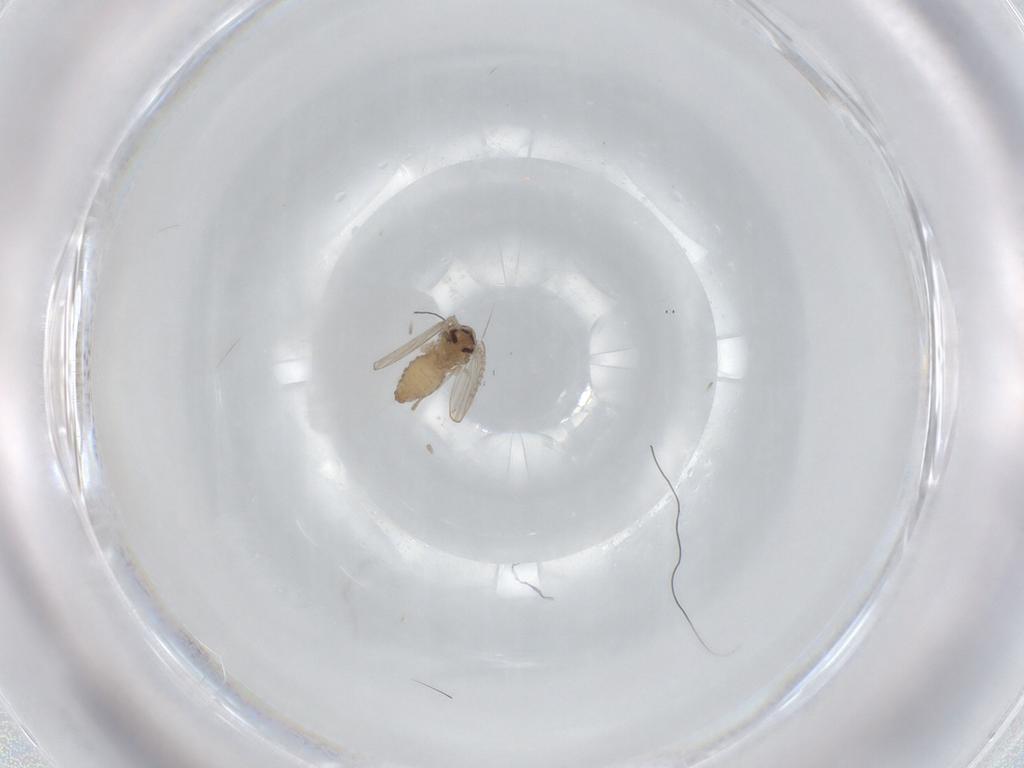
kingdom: Animalia
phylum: Arthropoda
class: Insecta
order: Diptera
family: Psychodidae
